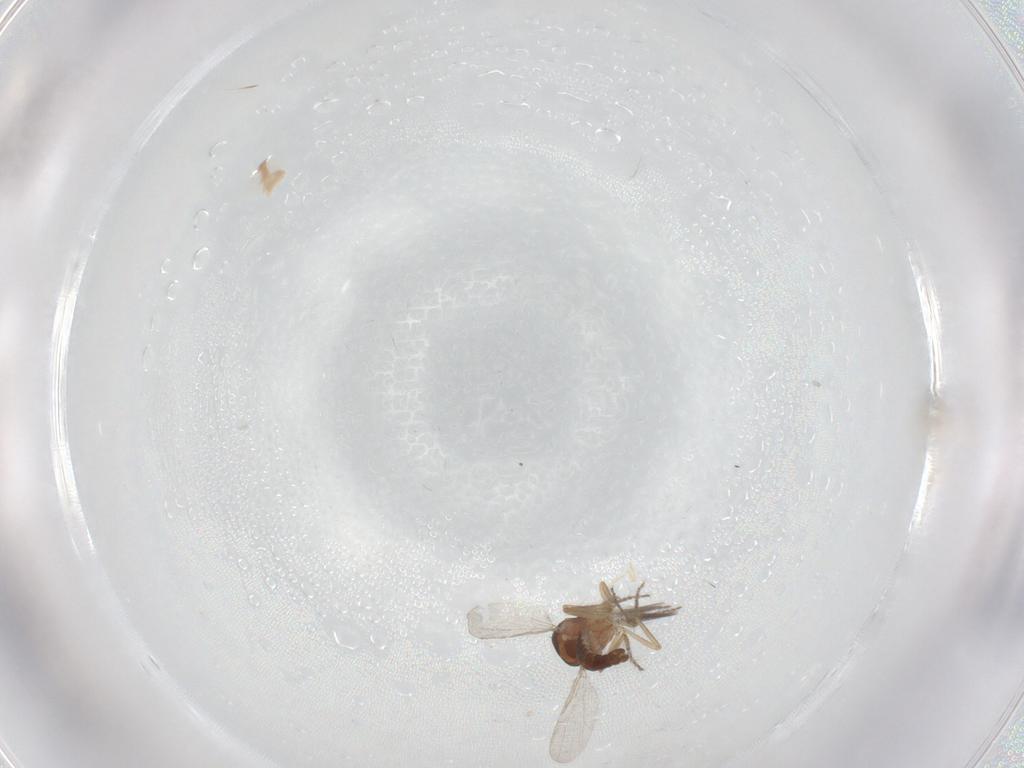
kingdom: Animalia
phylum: Arthropoda
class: Insecta
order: Diptera
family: Ceratopogonidae
